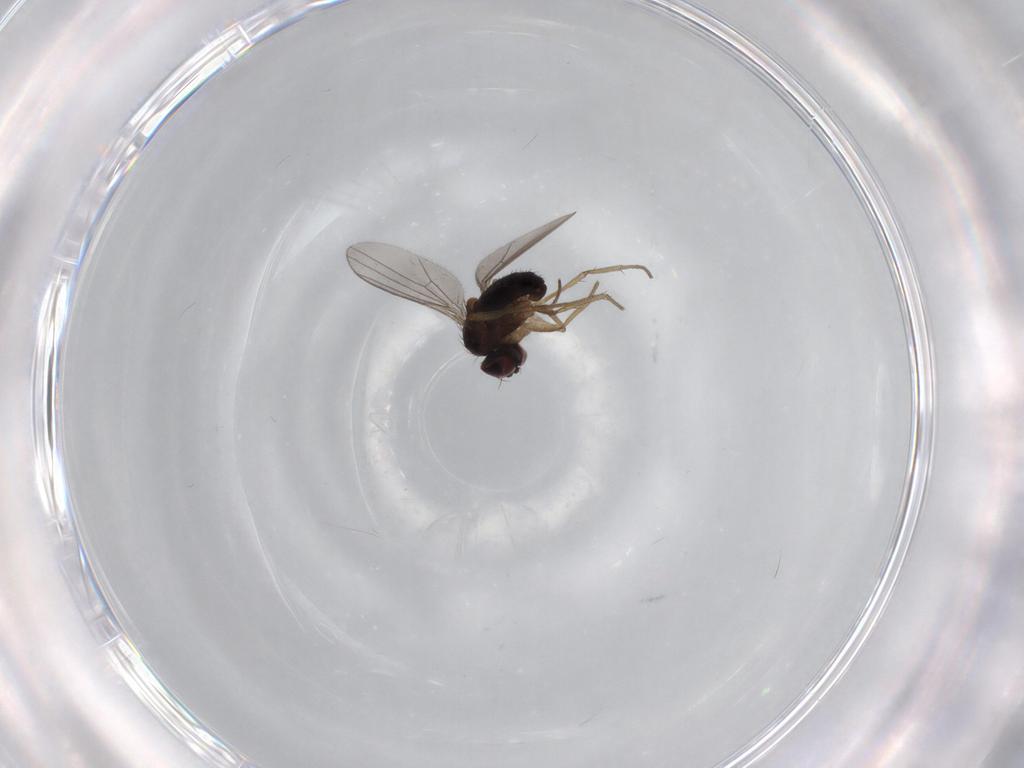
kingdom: Animalia
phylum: Arthropoda
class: Insecta
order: Diptera
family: Dolichopodidae
